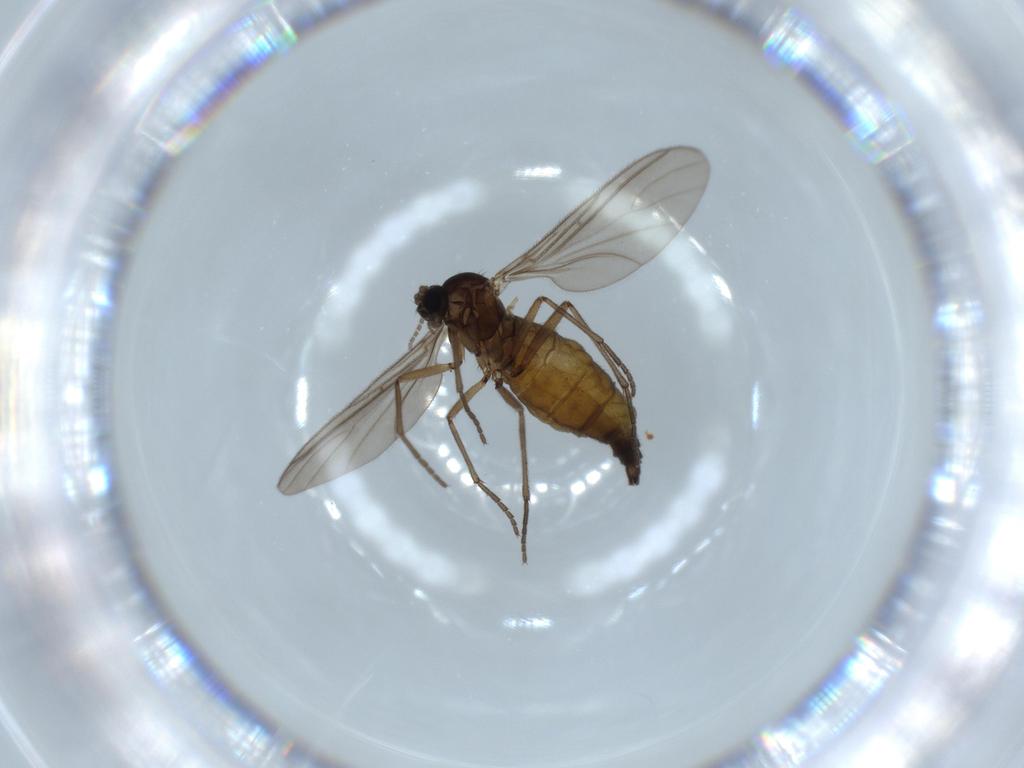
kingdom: Animalia
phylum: Arthropoda
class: Insecta
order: Diptera
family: Sciaridae
